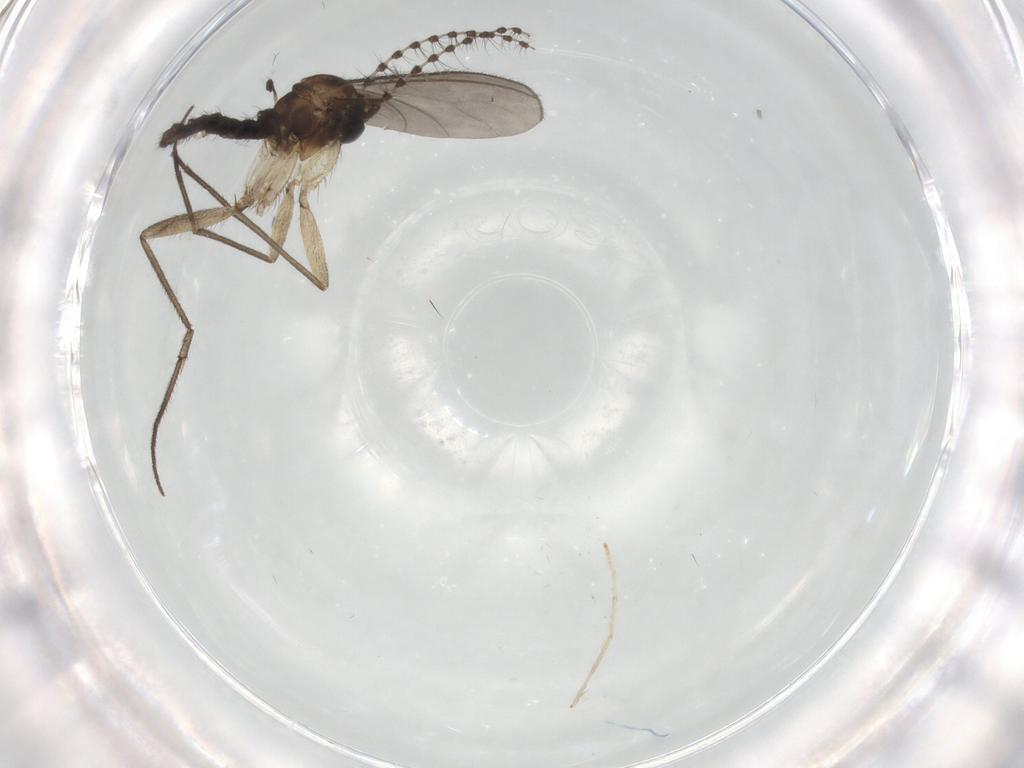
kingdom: Animalia
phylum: Arthropoda
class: Insecta
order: Diptera
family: Chironomidae
